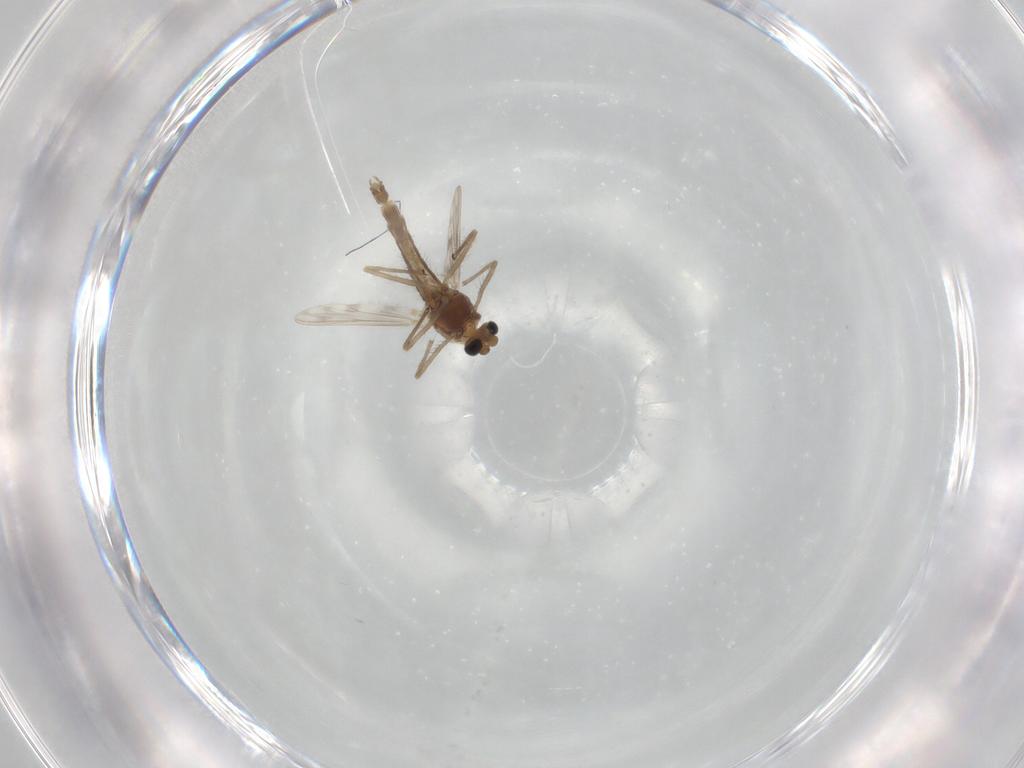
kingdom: Animalia
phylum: Arthropoda
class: Insecta
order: Diptera
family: Chironomidae
